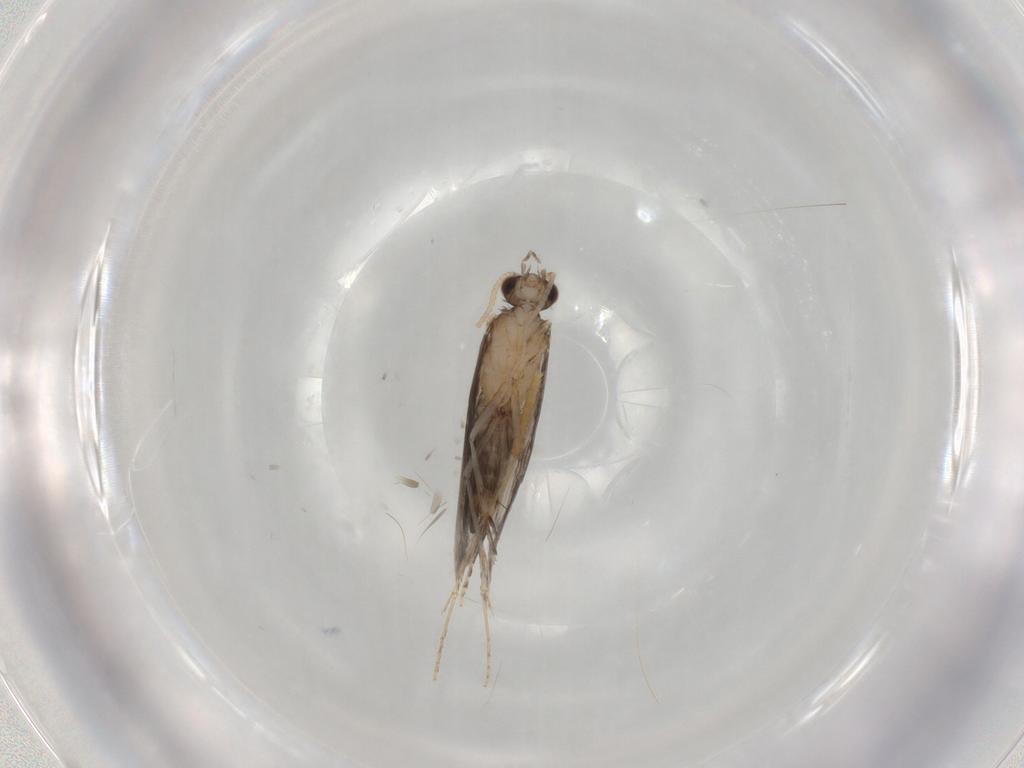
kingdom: Animalia
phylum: Arthropoda
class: Insecta
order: Trichoptera
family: Hydroptilidae
